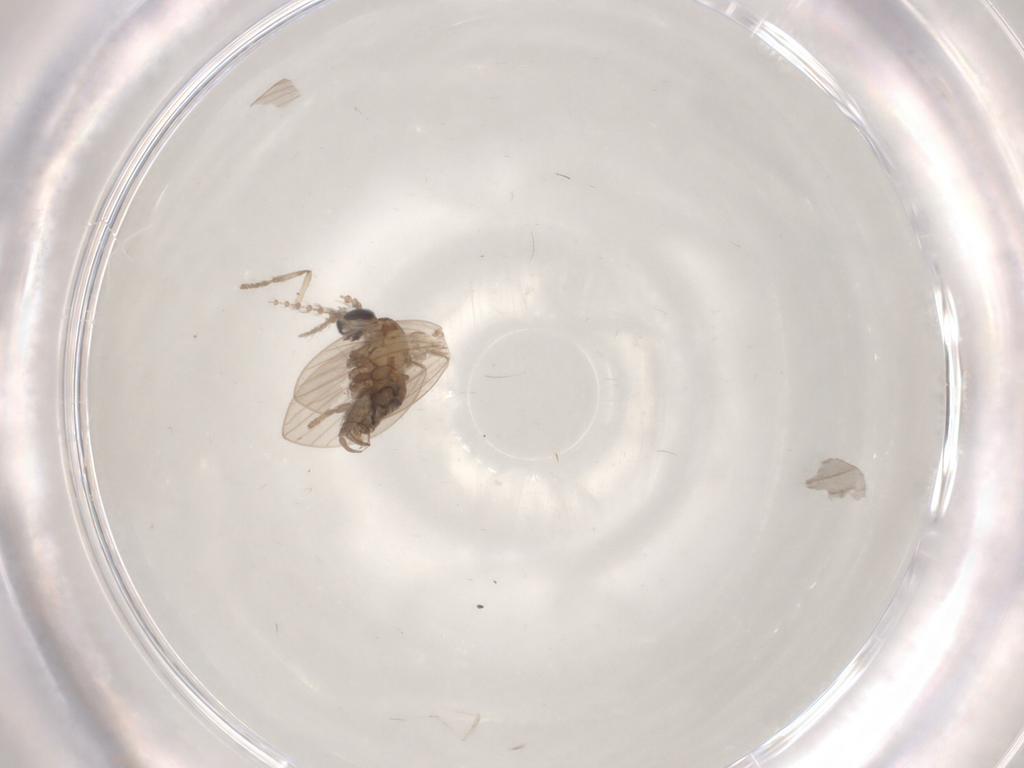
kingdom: Animalia
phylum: Arthropoda
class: Insecta
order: Diptera
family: Psychodidae
